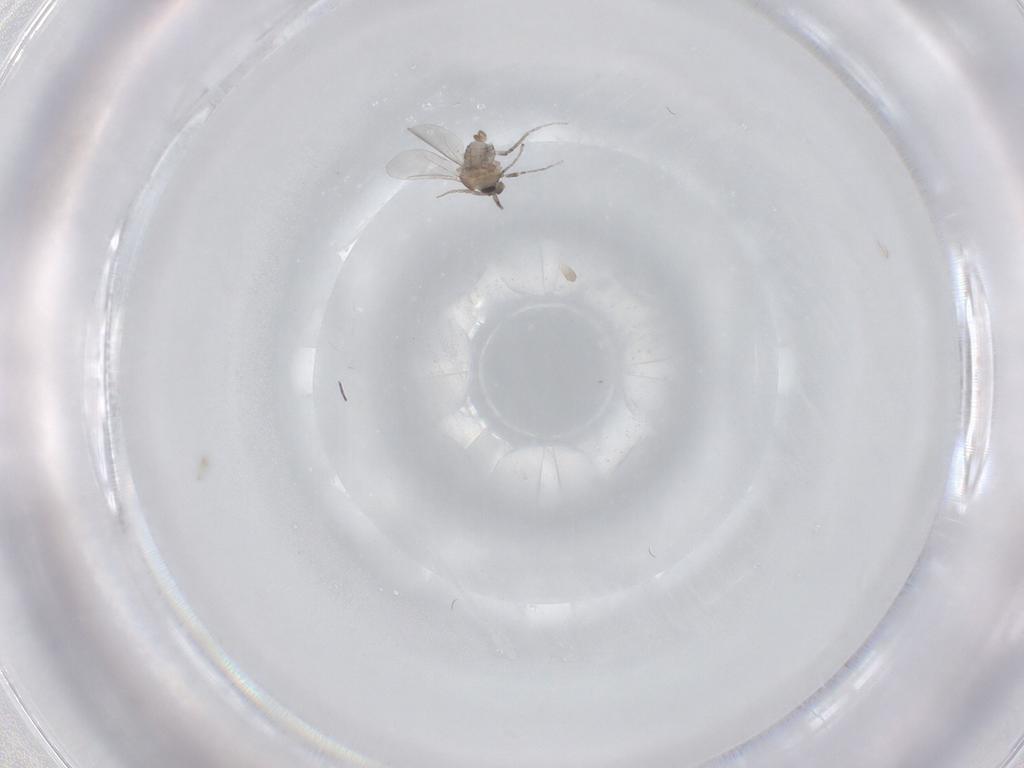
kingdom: Animalia
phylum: Arthropoda
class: Insecta
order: Diptera
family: Cecidomyiidae
